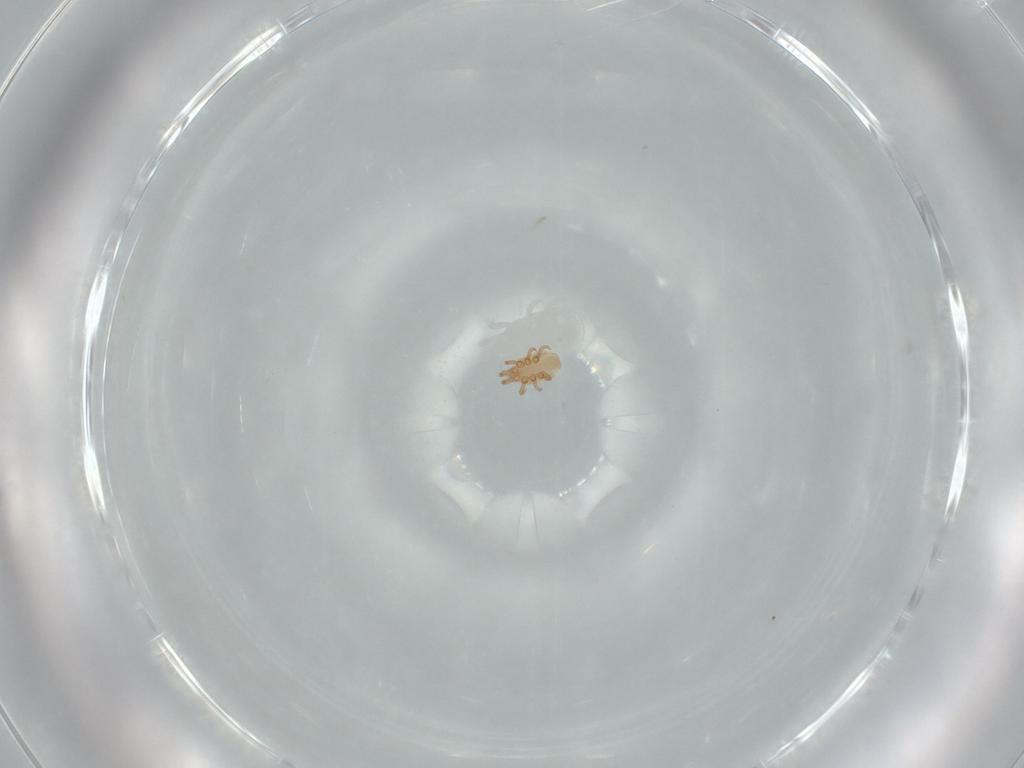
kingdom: Animalia
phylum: Arthropoda
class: Arachnida
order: Mesostigmata
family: Dinychidae
